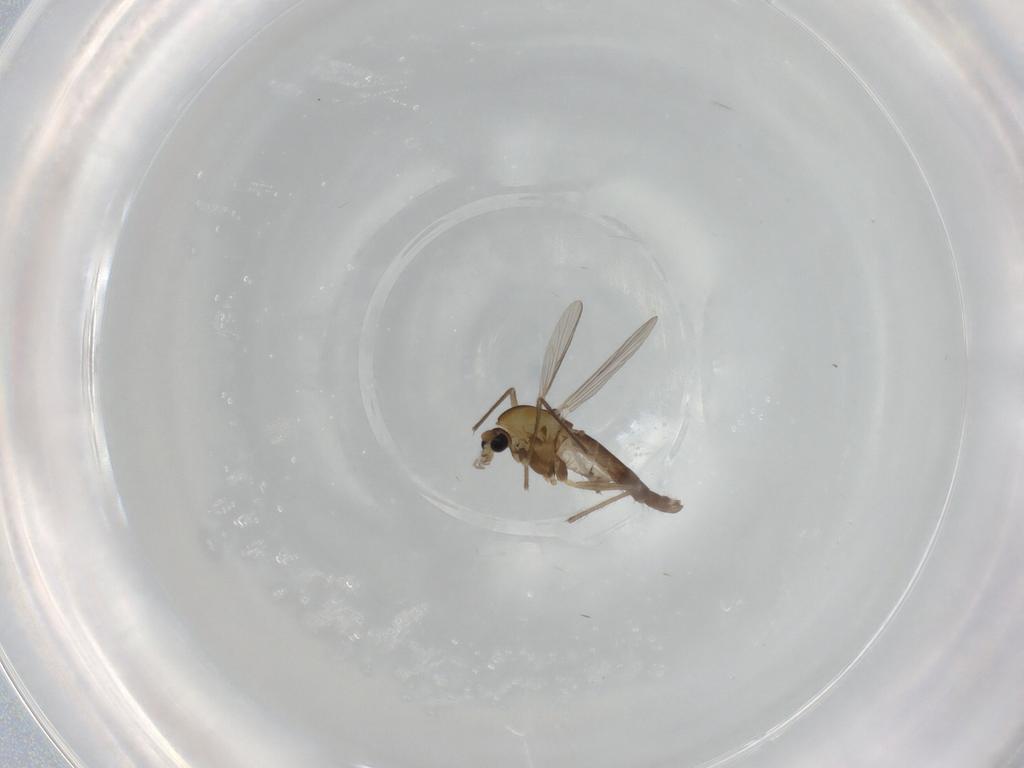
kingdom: Animalia
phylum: Arthropoda
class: Insecta
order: Diptera
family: Chironomidae
